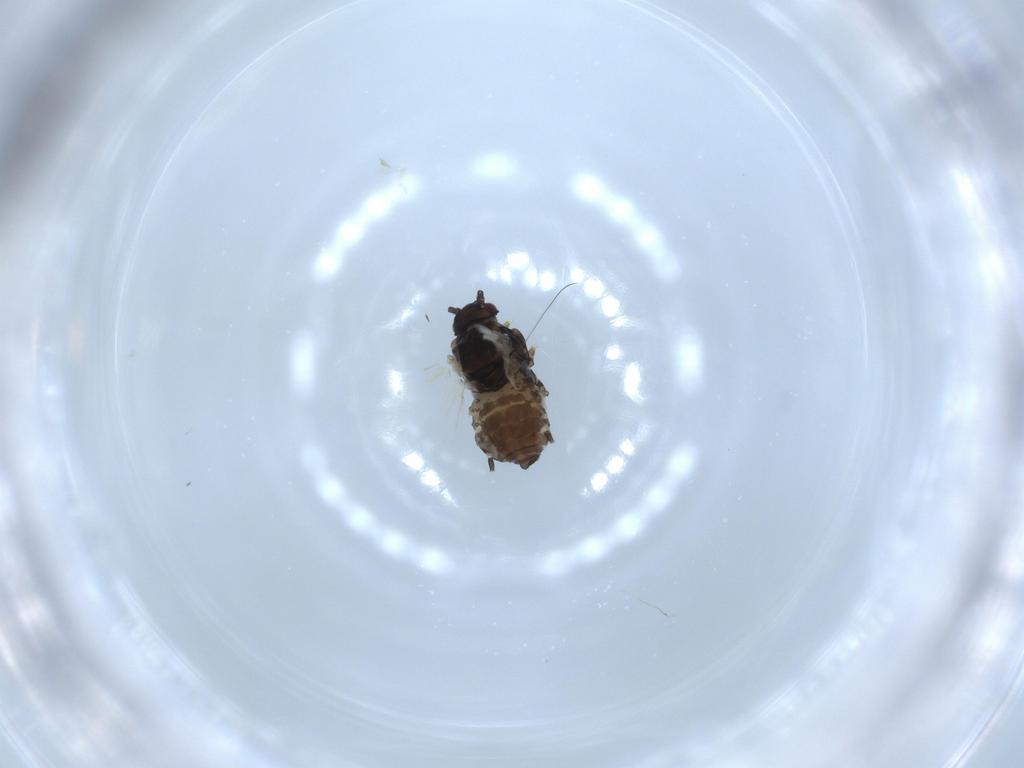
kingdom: Animalia
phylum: Arthropoda
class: Insecta
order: Hemiptera
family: Aphididae
